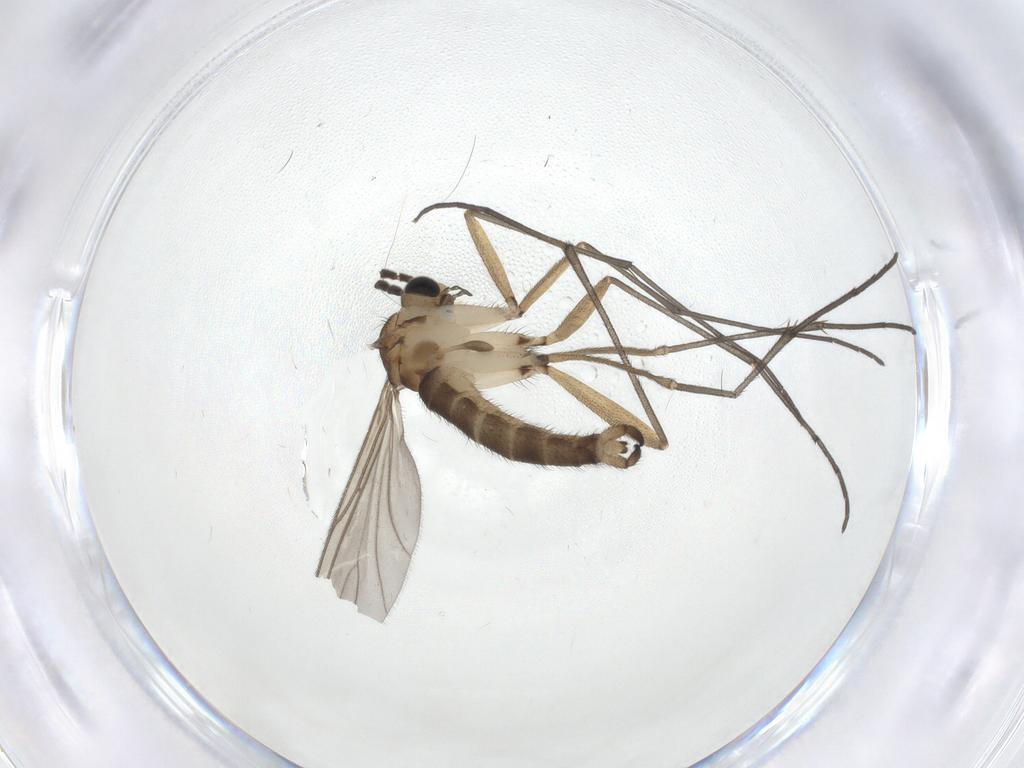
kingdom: Animalia
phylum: Arthropoda
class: Insecta
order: Diptera
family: Sciaridae
